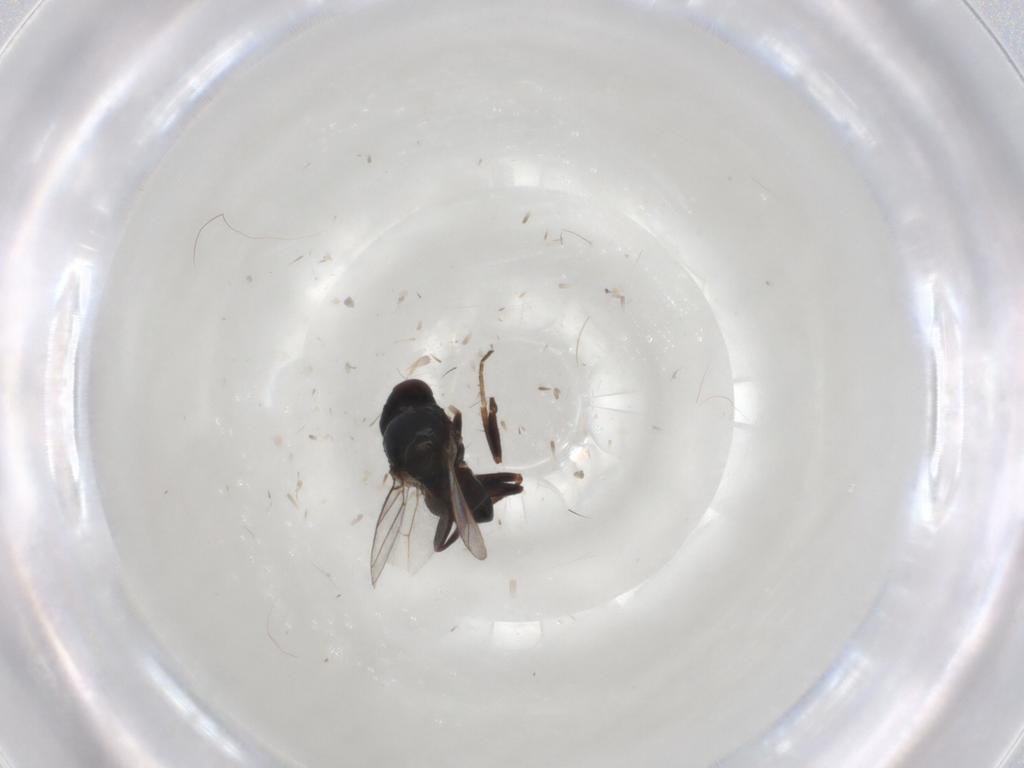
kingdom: Animalia
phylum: Arthropoda
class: Insecta
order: Diptera
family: Chloropidae
